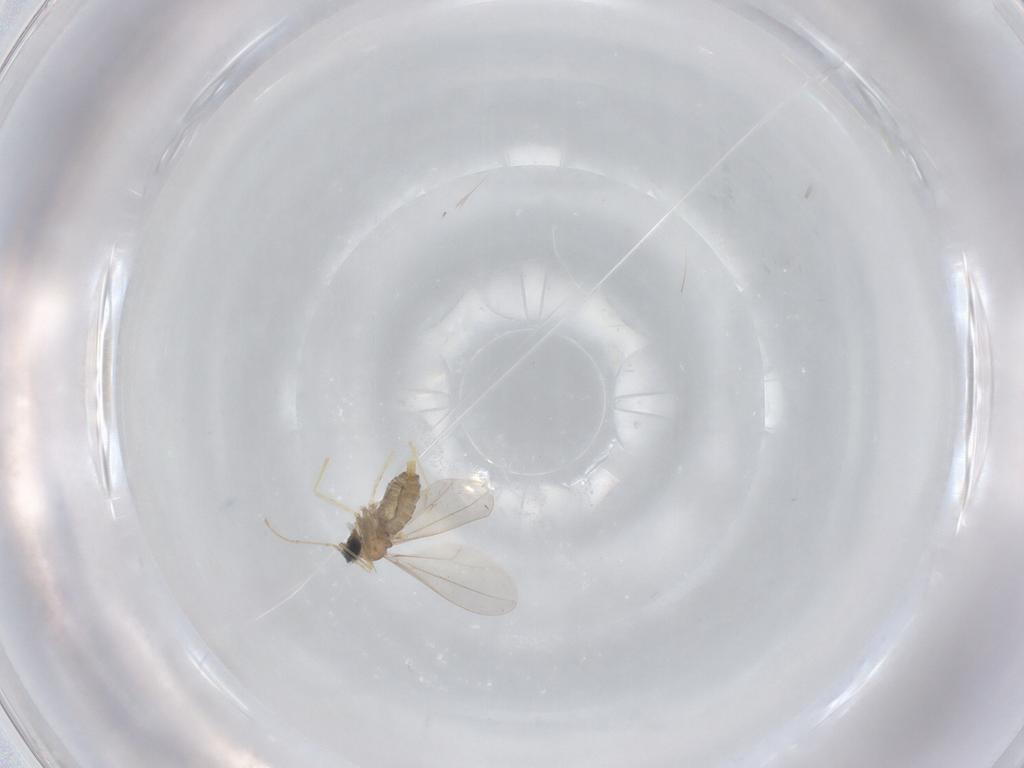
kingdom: Animalia
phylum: Arthropoda
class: Insecta
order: Diptera
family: Cecidomyiidae
